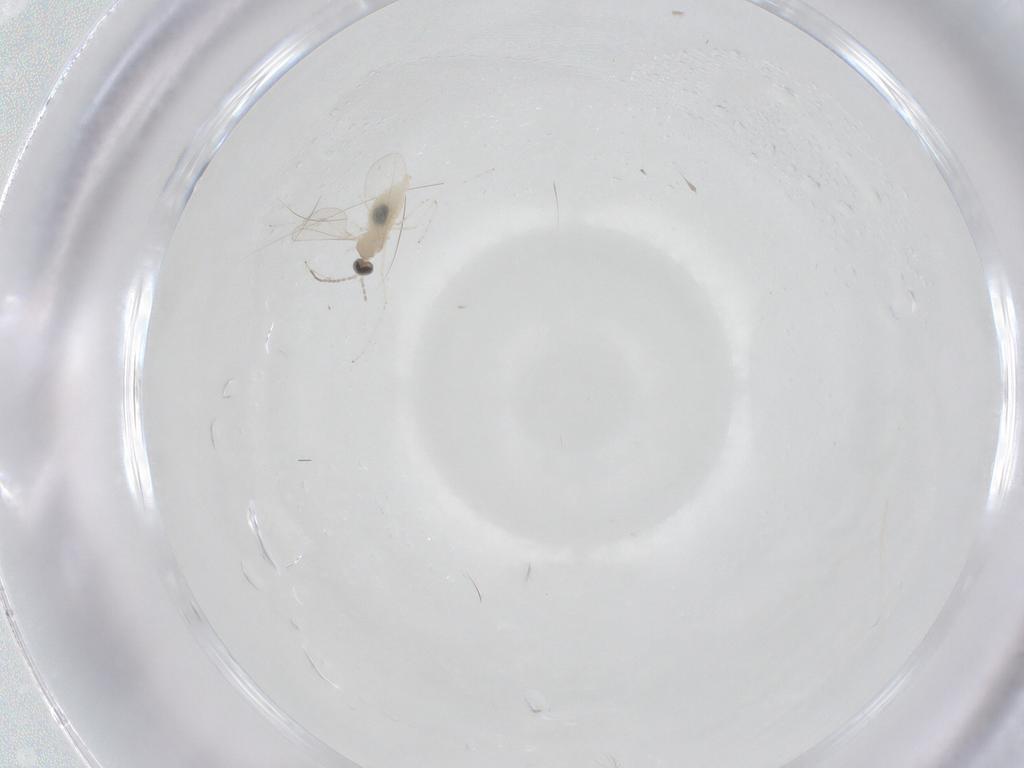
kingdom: Animalia
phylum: Arthropoda
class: Insecta
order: Diptera
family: Cecidomyiidae
